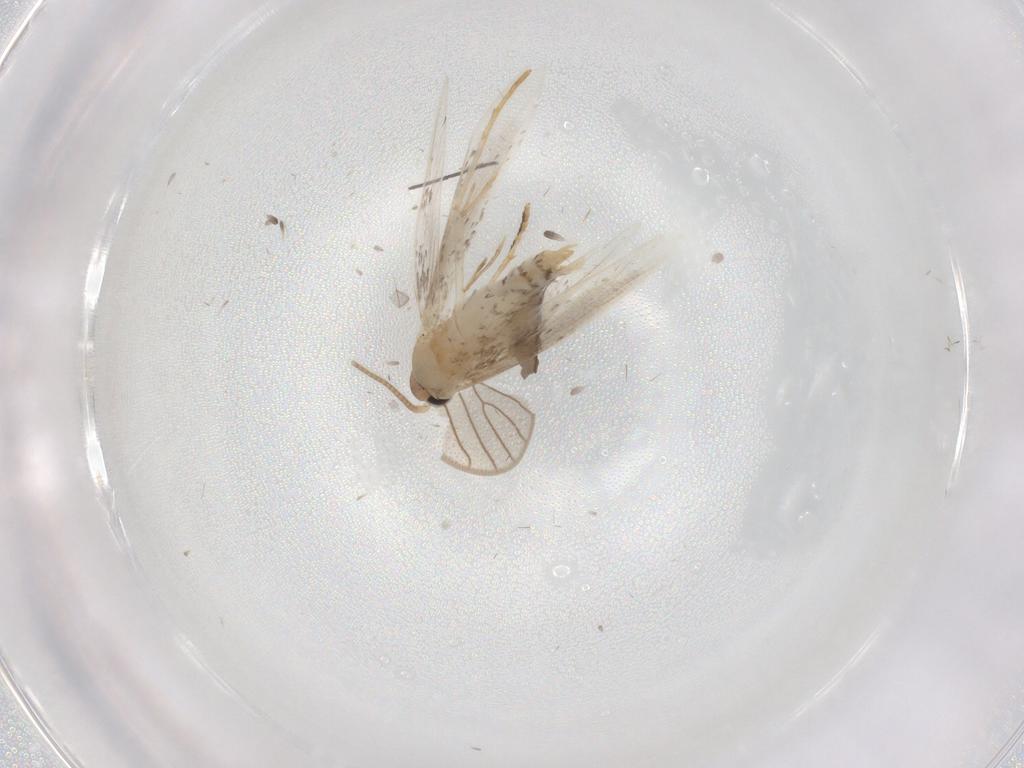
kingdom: Animalia
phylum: Arthropoda
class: Insecta
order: Lepidoptera
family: Tineidae
